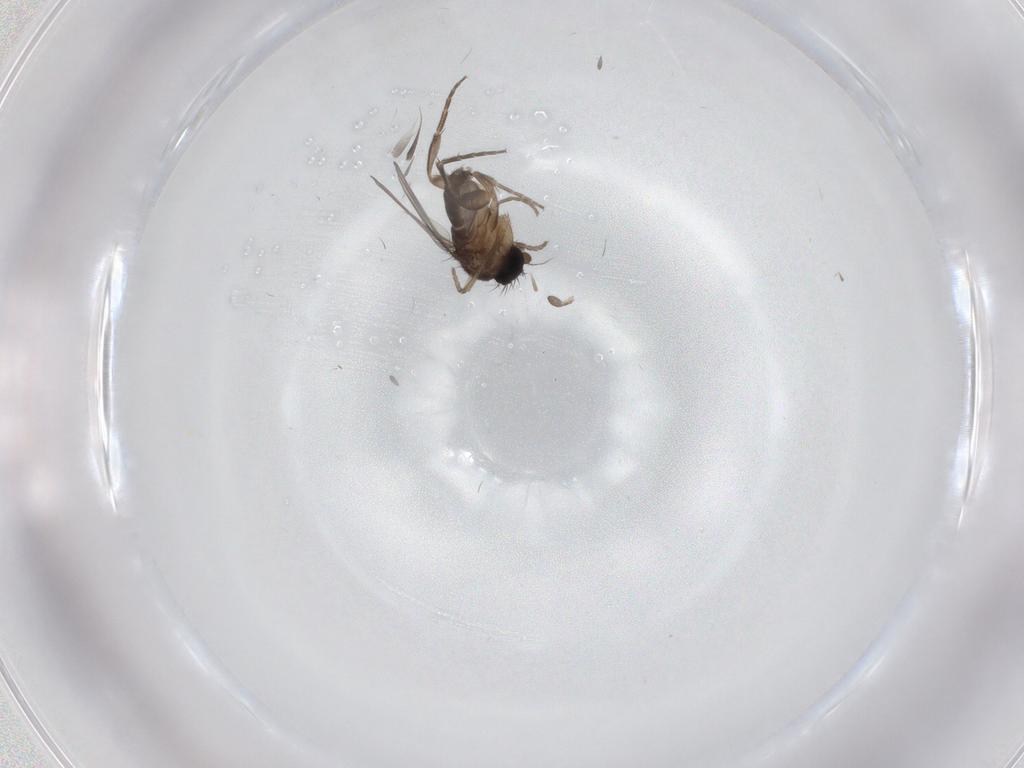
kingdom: Animalia
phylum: Arthropoda
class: Insecta
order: Diptera
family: Phoridae
